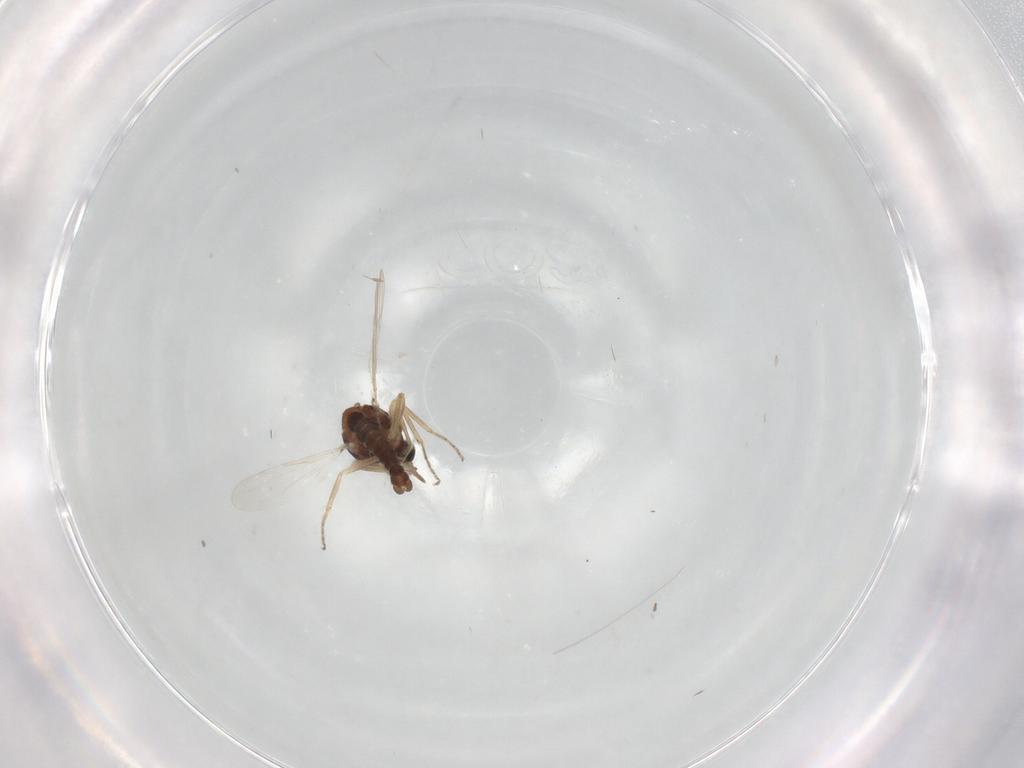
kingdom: Animalia
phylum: Arthropoda
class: Insecta
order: Diptera
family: Ceratopogonidae
